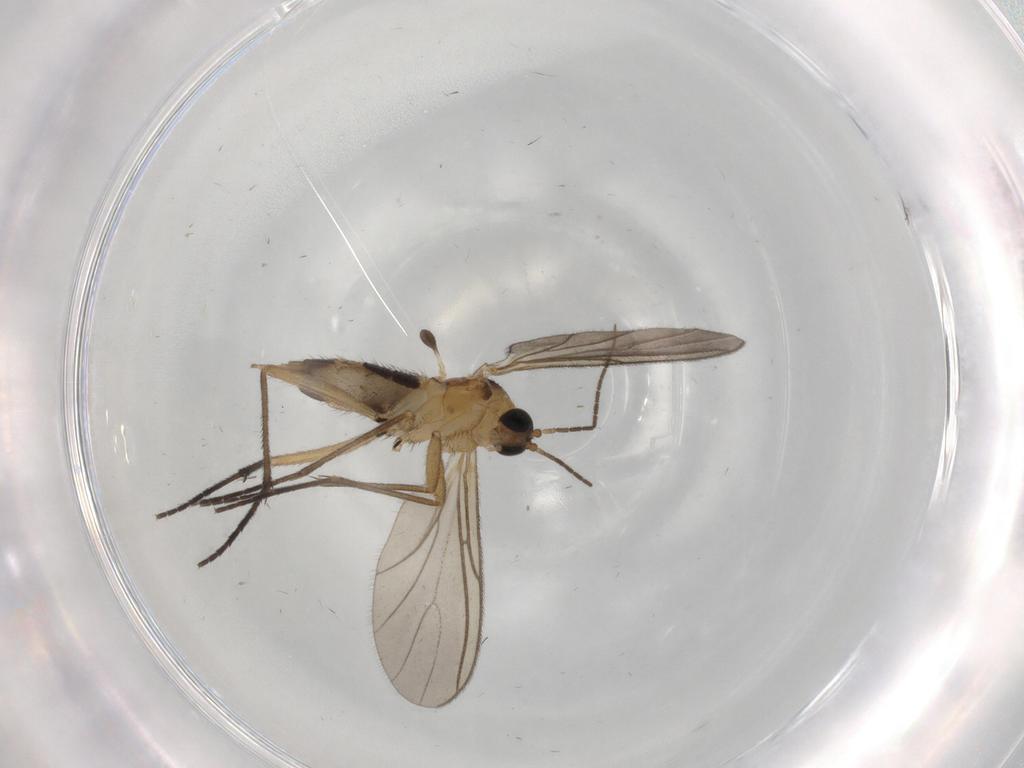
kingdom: Animalia
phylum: Arthropoda
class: Insecta
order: Diptera
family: Sciaridae
